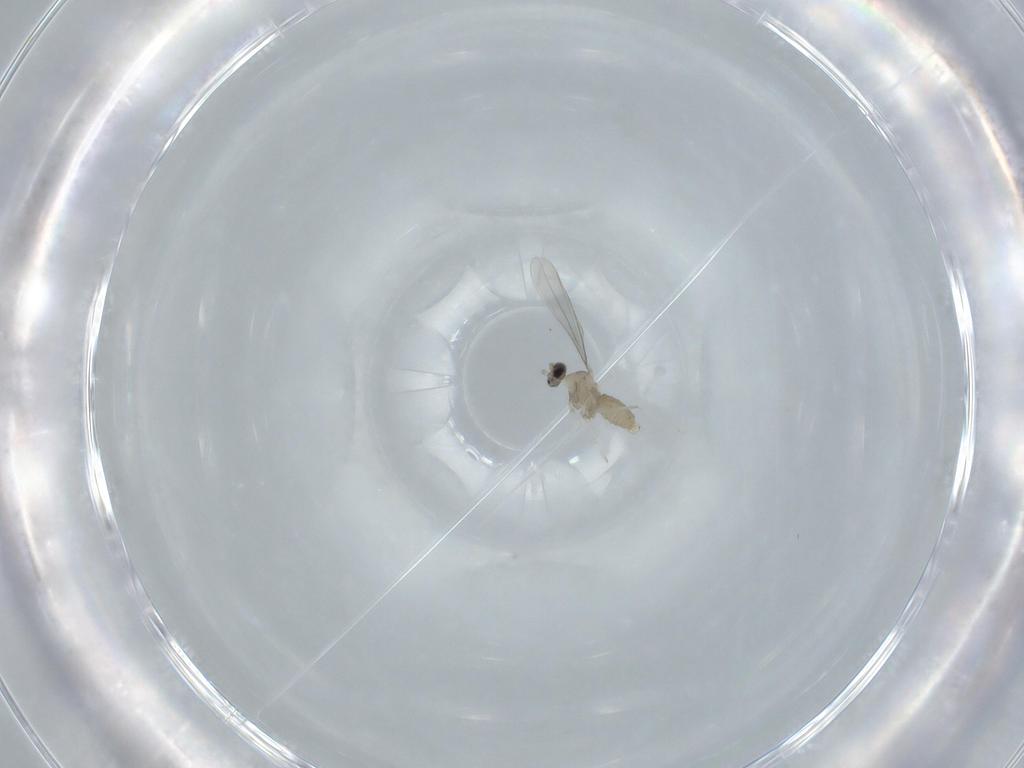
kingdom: Animalia
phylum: Arthropoda
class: Insecta
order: Diptera
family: Cecidomyiidae
